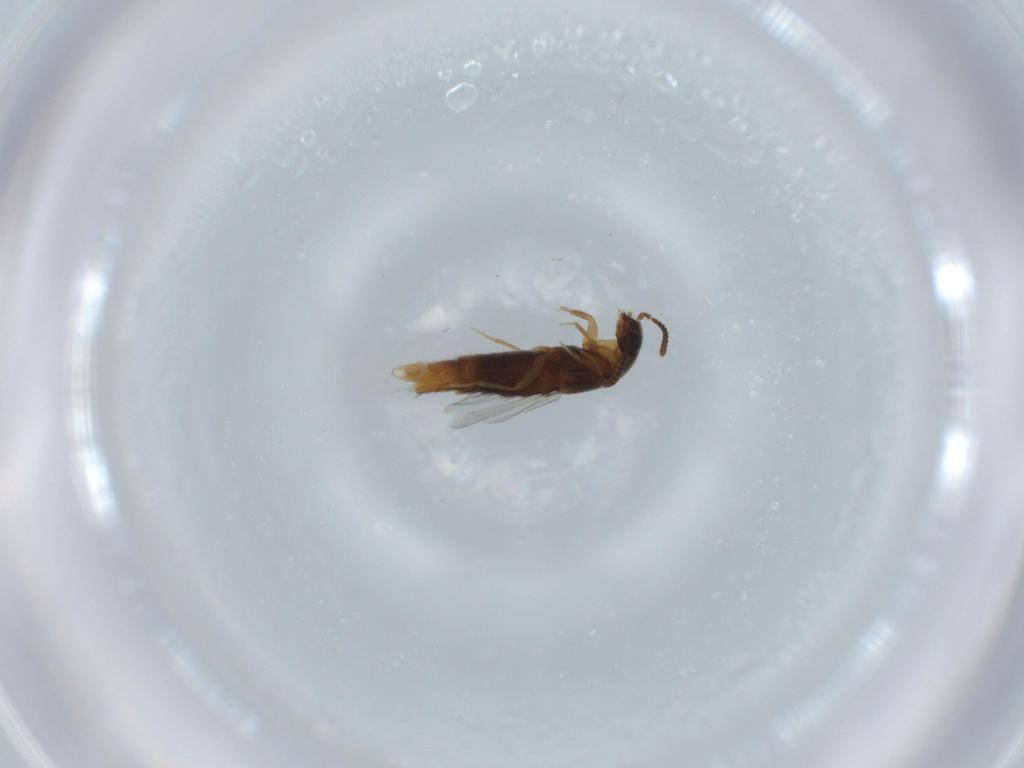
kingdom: Animalia
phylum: Arthropoda
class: Insecta
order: Coleoptera
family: Staphylinidae
